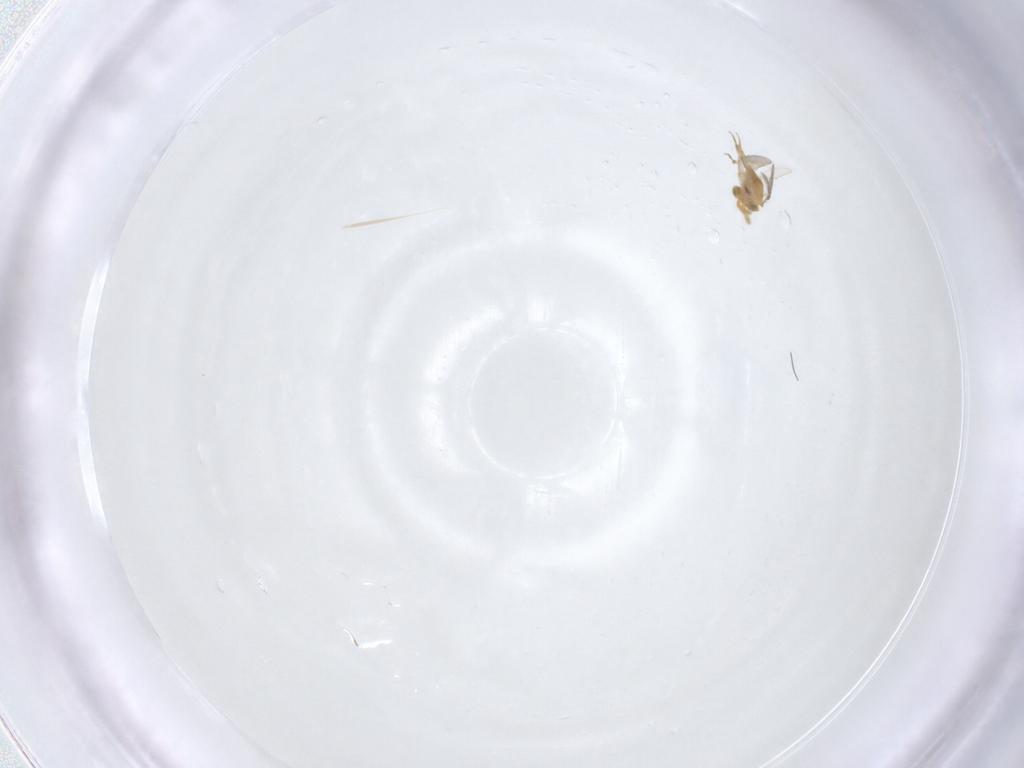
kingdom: Animalia
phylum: Arthropoda
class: Insecta
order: Hymenoptera
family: Aphelinidae
